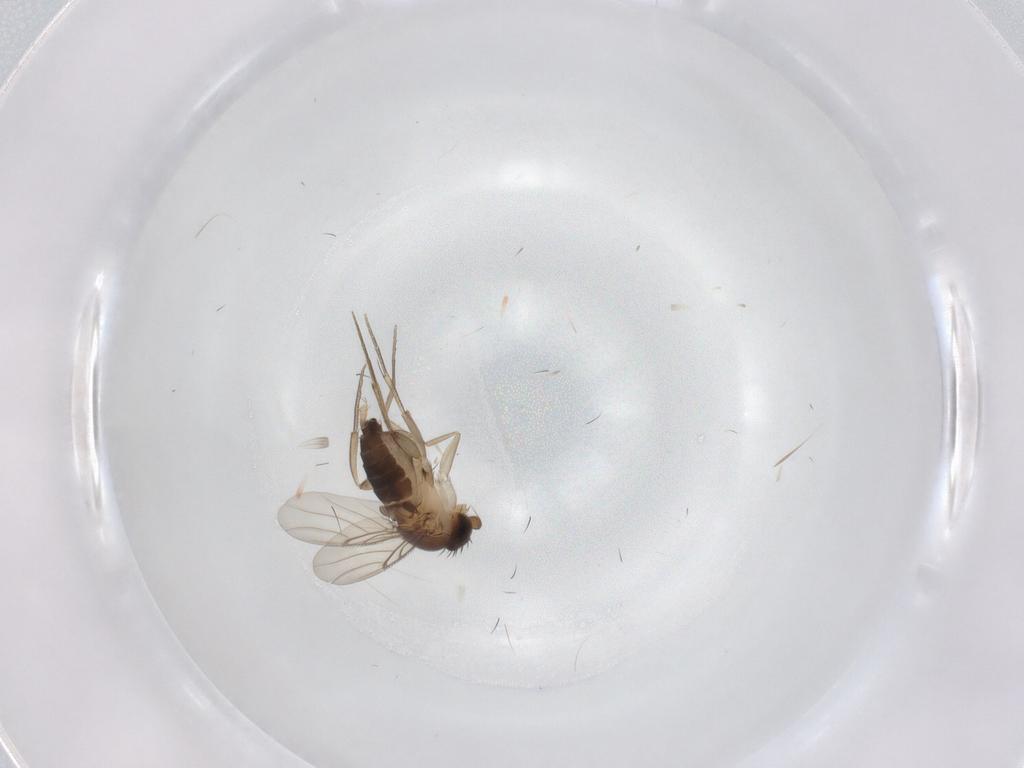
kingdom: Animalia
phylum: Arthropoda
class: Insecta
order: Diptera
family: Phoridae
